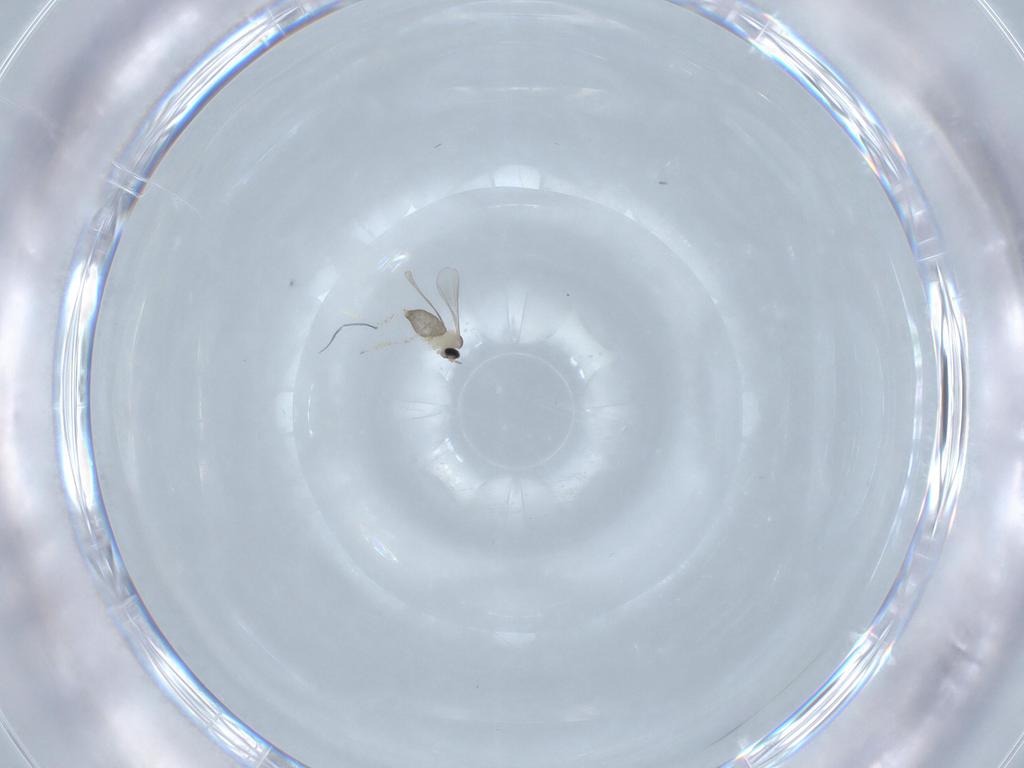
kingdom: Animalia
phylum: Arthropoda
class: Insecta
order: Diptera
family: Cecidomyiidae
